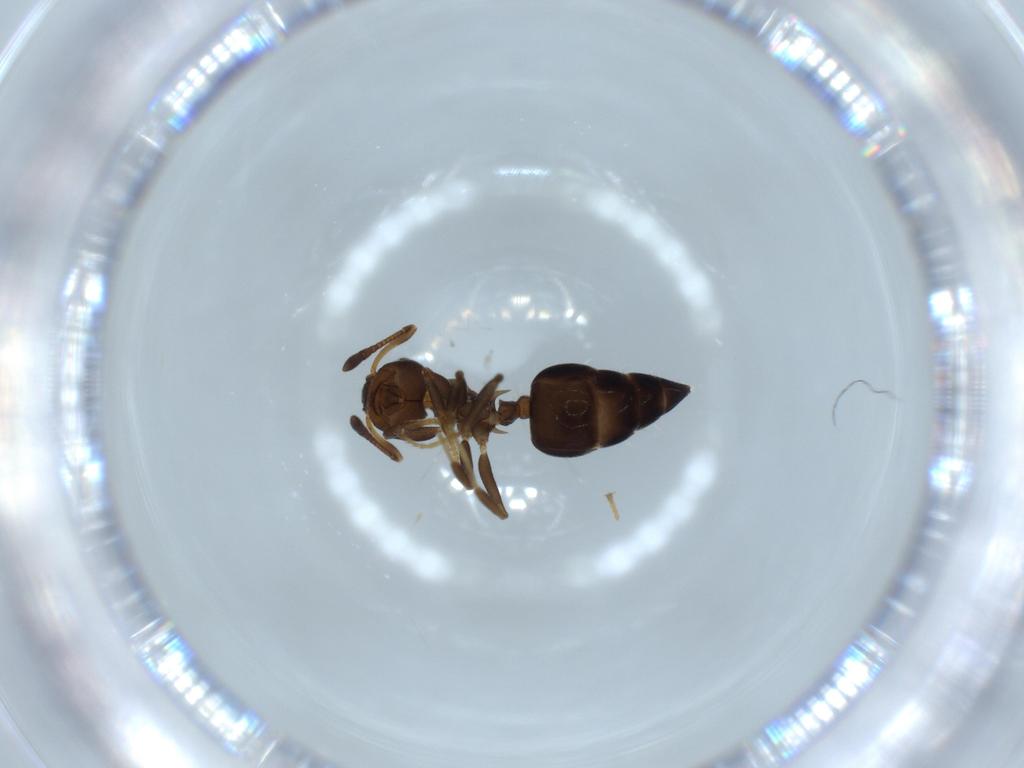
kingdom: Animalia
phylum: Arthropoda
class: Insecta
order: Hymenoptera
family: Formicidae
